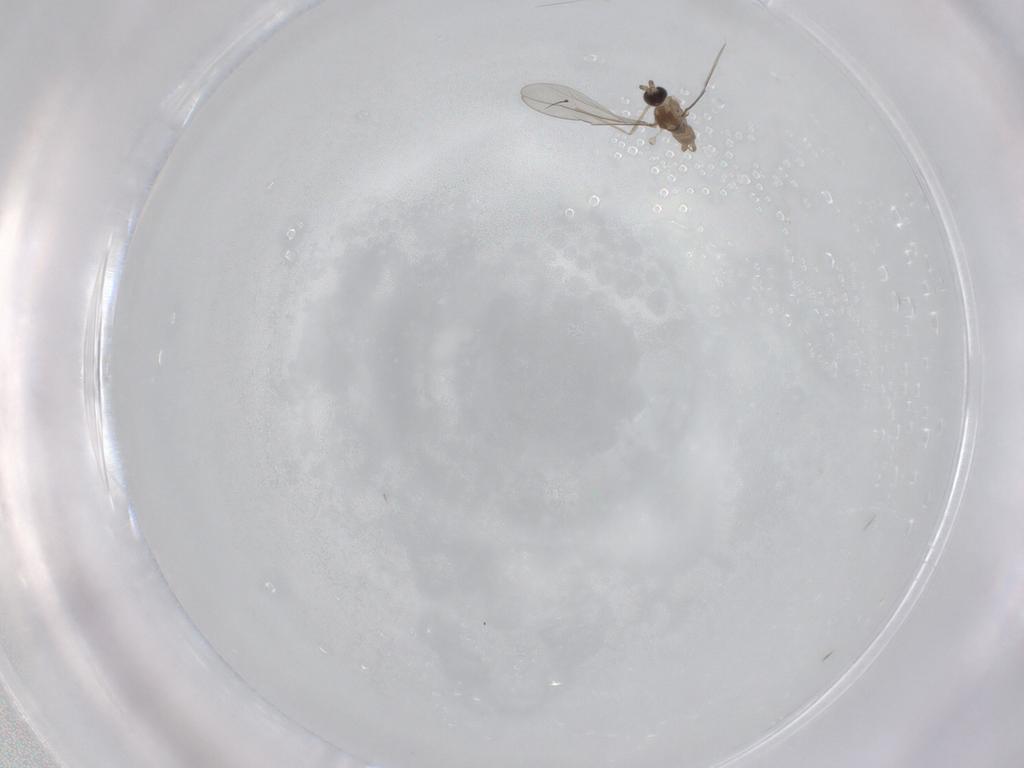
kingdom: Animalia
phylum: Arthropoda
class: Insecta
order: Diptera
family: Cecidomyiidae
